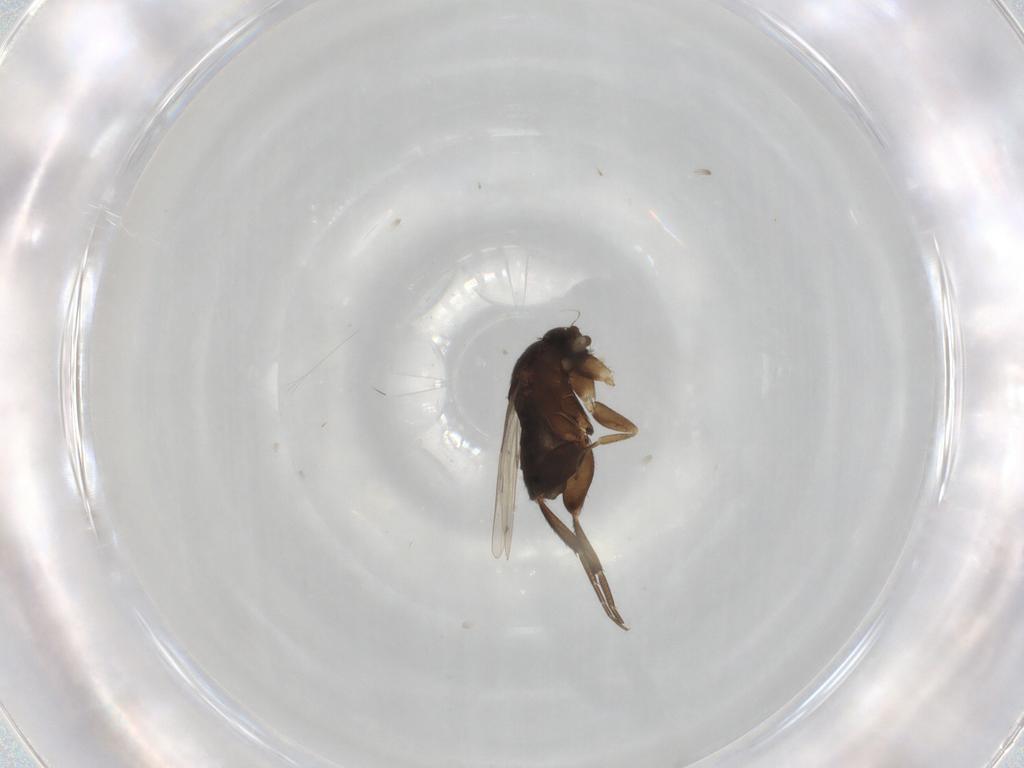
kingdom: Animalia
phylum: Arthropoda
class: Insecta
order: Diptera
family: Phoridae
